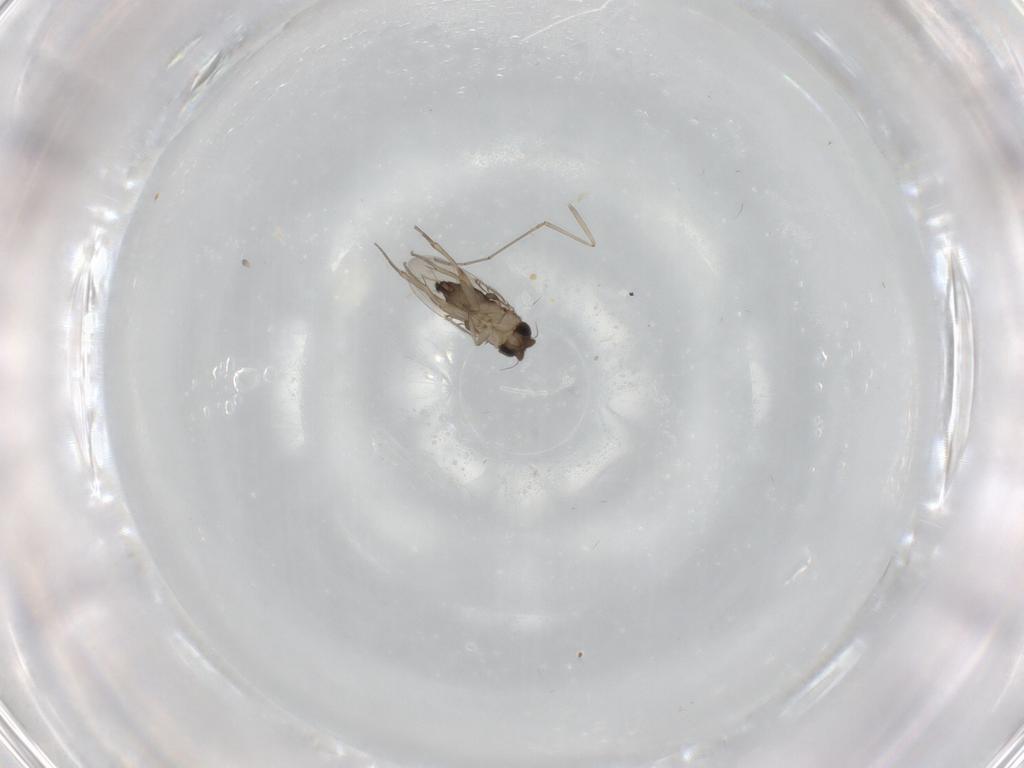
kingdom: Animalia
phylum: Arthropoda
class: Insecta
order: Diptera
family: Phoridae
